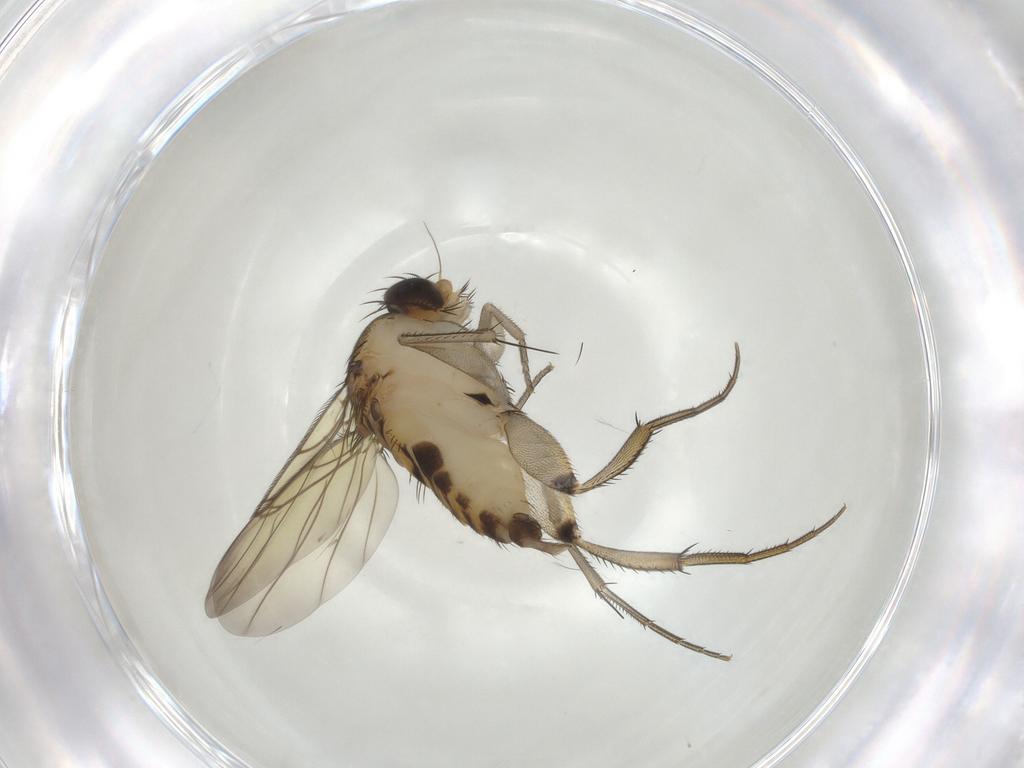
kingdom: Animalia
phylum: Arthropoda
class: Insecta
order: Diptera
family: Phoridae
